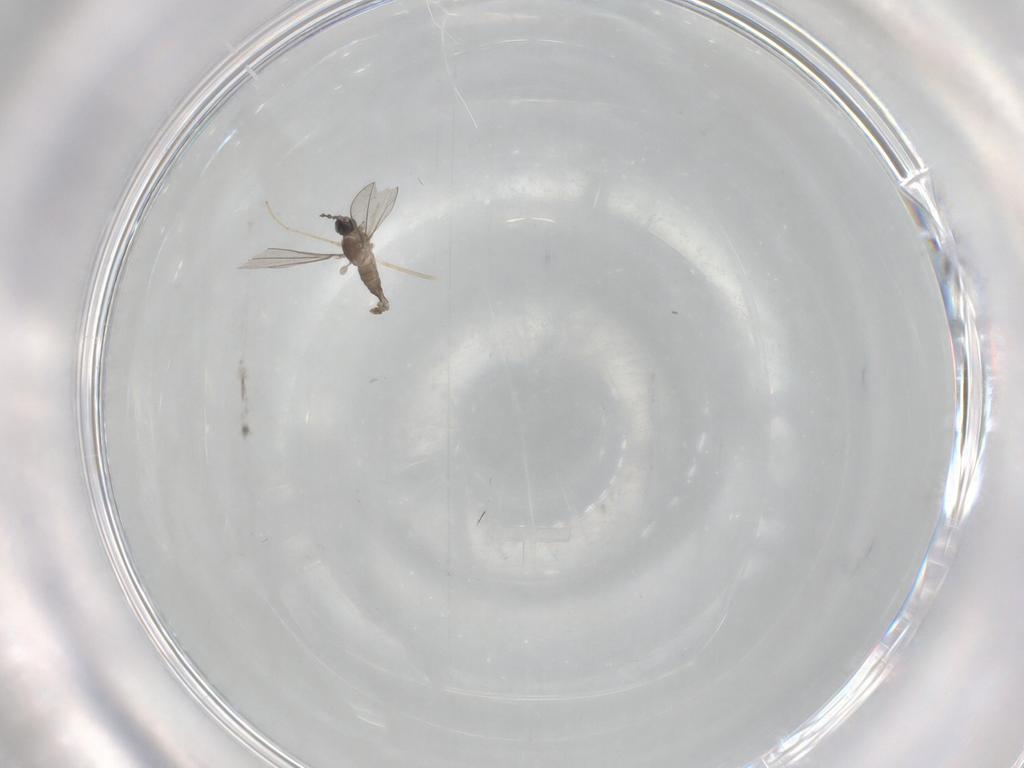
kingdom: Animalia
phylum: Arthropoda
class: Insecta
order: Diptera
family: Cecidomyiidae
